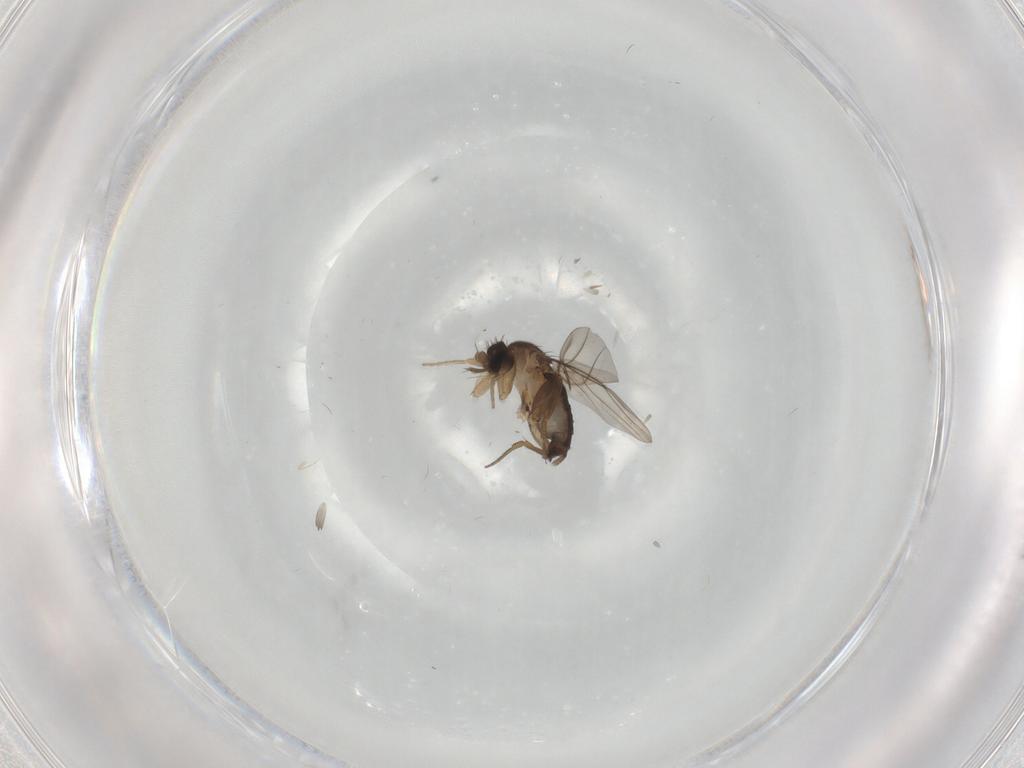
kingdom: Animalia
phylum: Arthropoda
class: Insecta
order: Diptera
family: Phoridae
